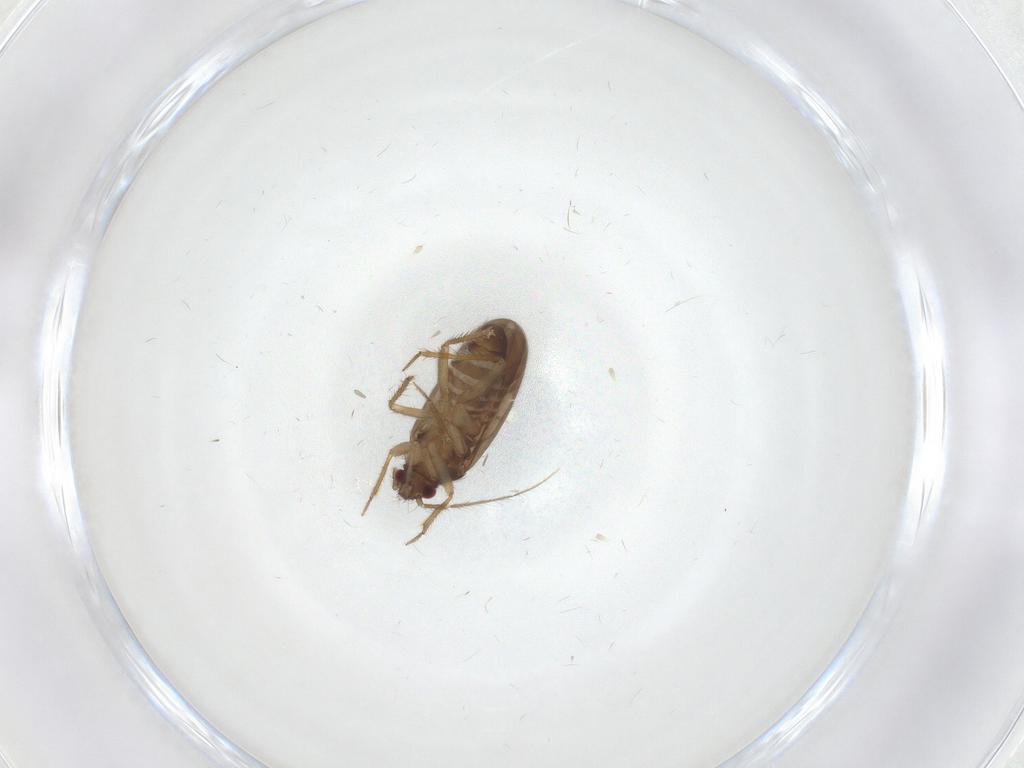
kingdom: Animalia
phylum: Arthropoda
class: Insecta
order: Hemiptera
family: Ceratocombidae
